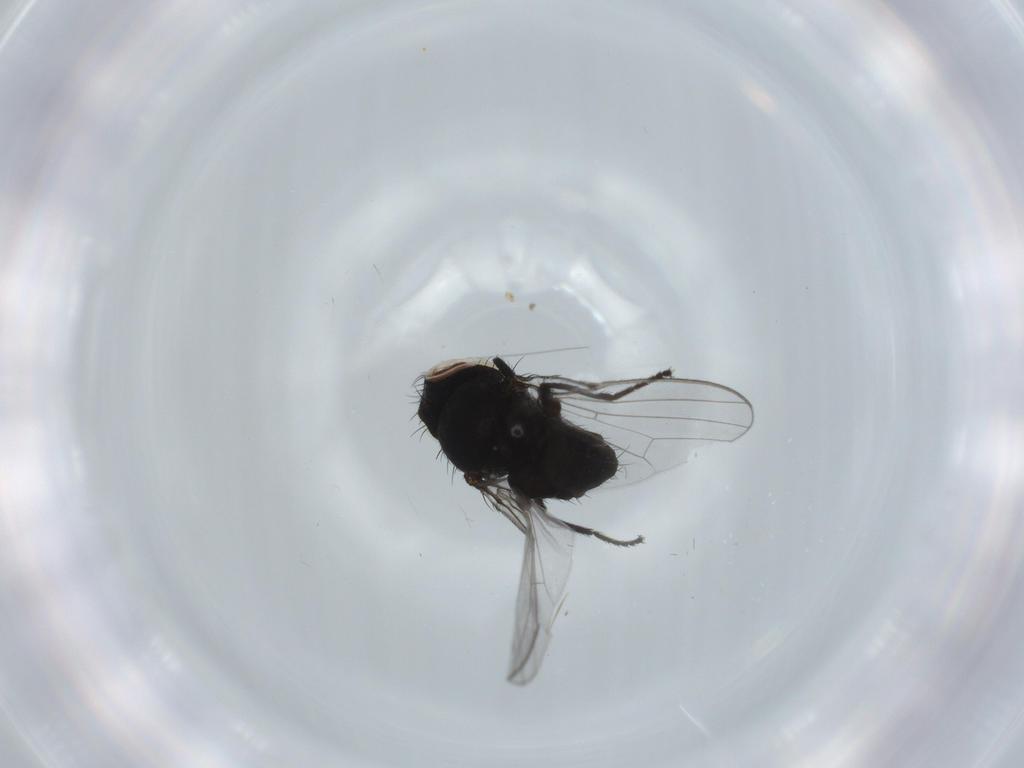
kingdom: Animalia
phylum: Arthropoda
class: Insecta
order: Diptera
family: Milichiidae
